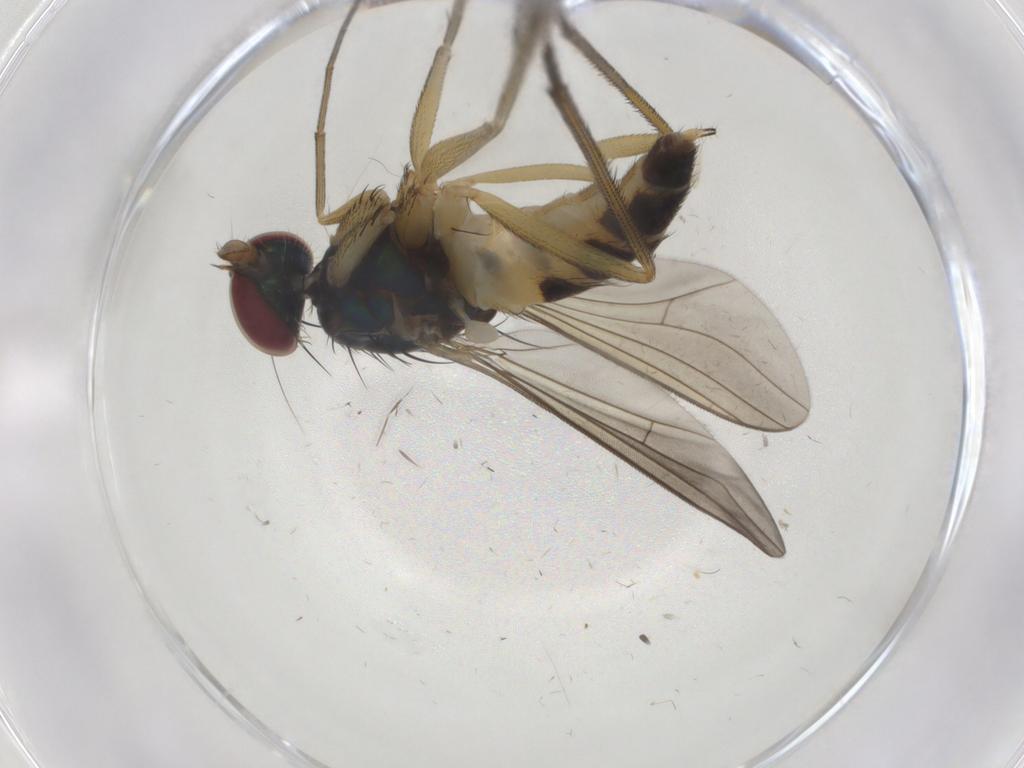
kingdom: Animalia
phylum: Arthropoda
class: Insecta
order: Diptera
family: Dolichopodidae
